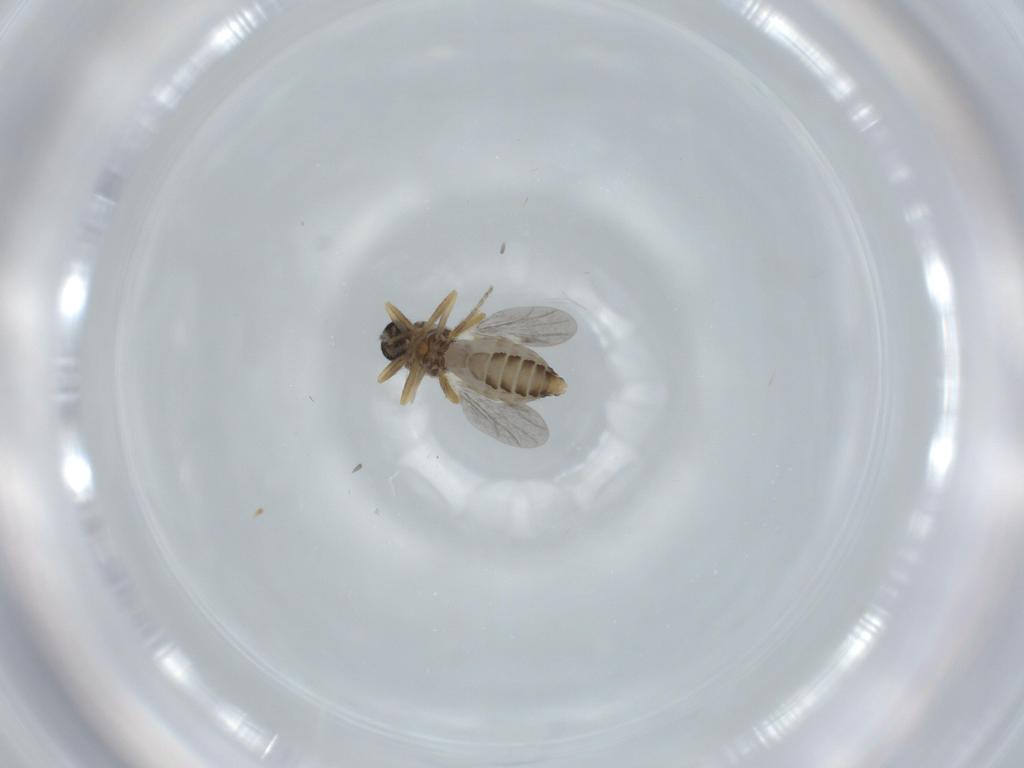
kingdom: Animalia
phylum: Arthropoda
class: Insecta
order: Diptera
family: Ceratopogonidae
